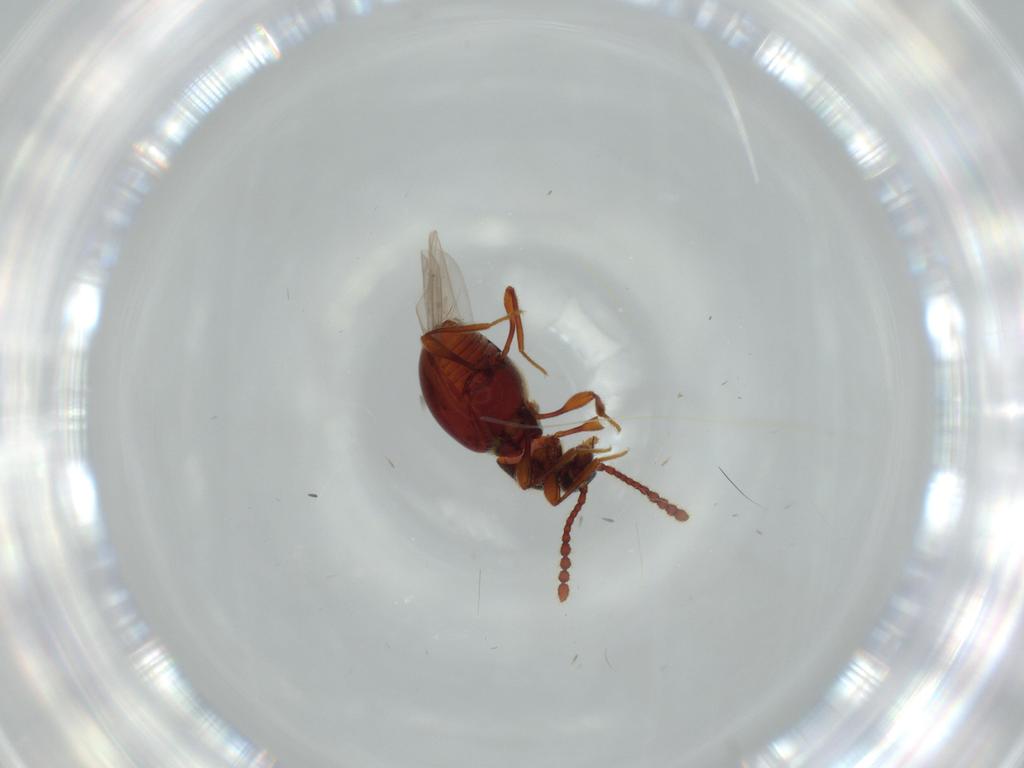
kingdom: Animalia
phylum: Arthropoda
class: Insecta
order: Coleoptera
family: Staphylinidae
